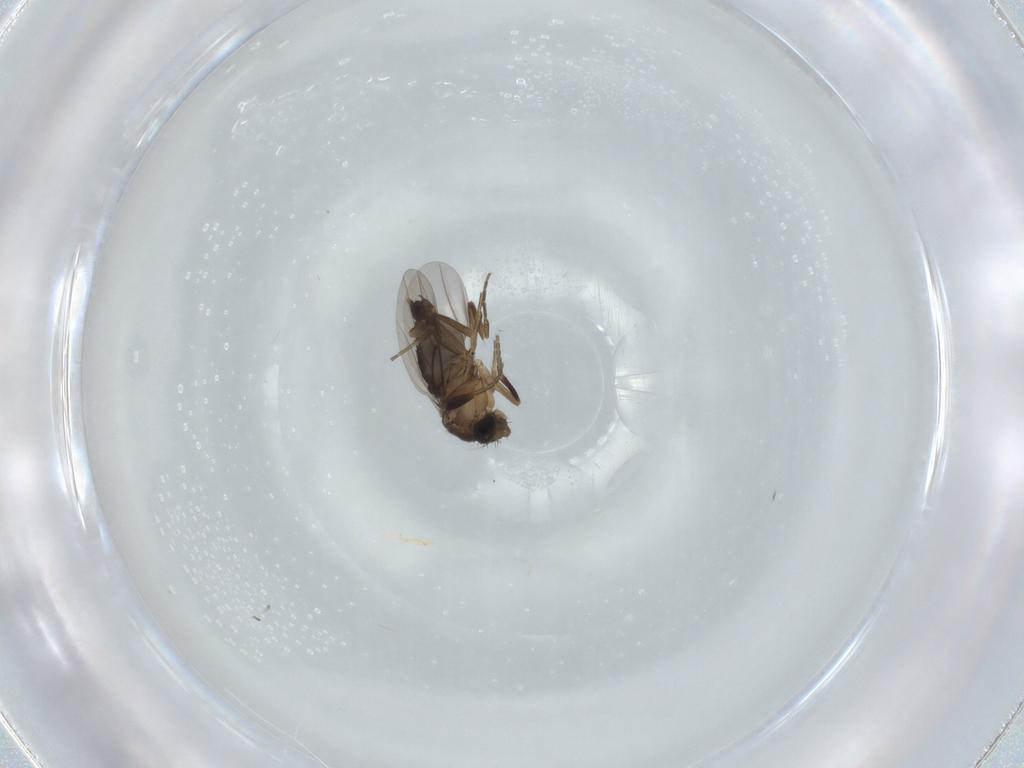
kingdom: Animalia
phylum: Arthropoda
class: Insecta
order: Diptera
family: Phoridae
